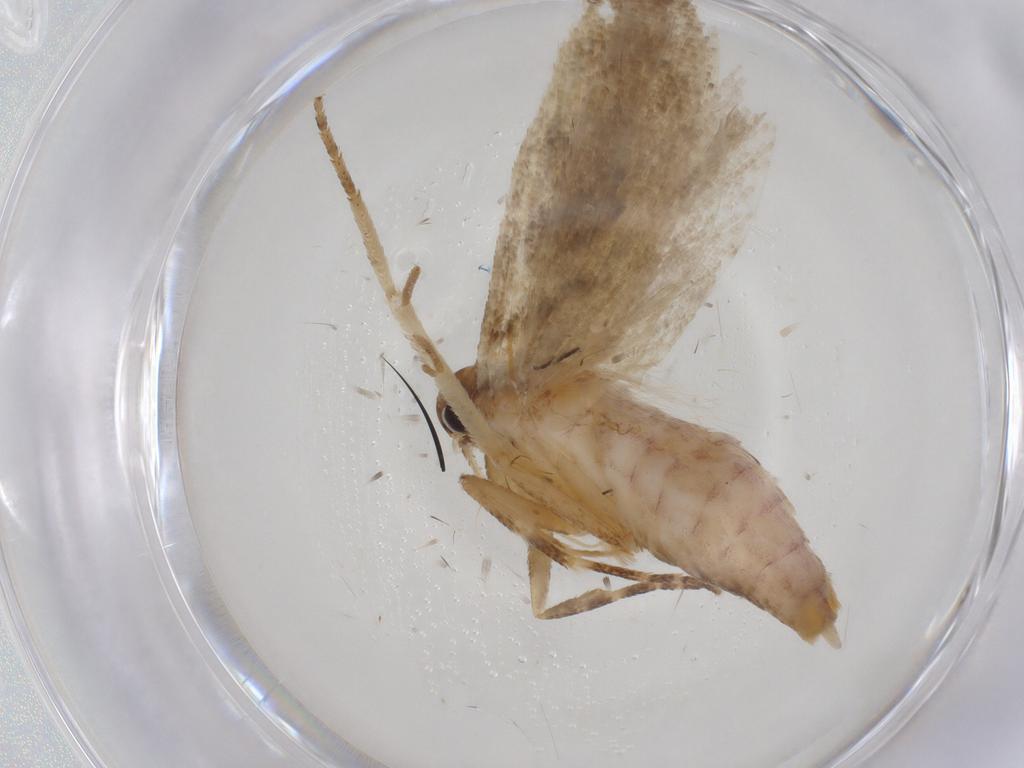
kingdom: Animalia
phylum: Arthropoda
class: Insecta
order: Lepidoptera
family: Gelechiidae
